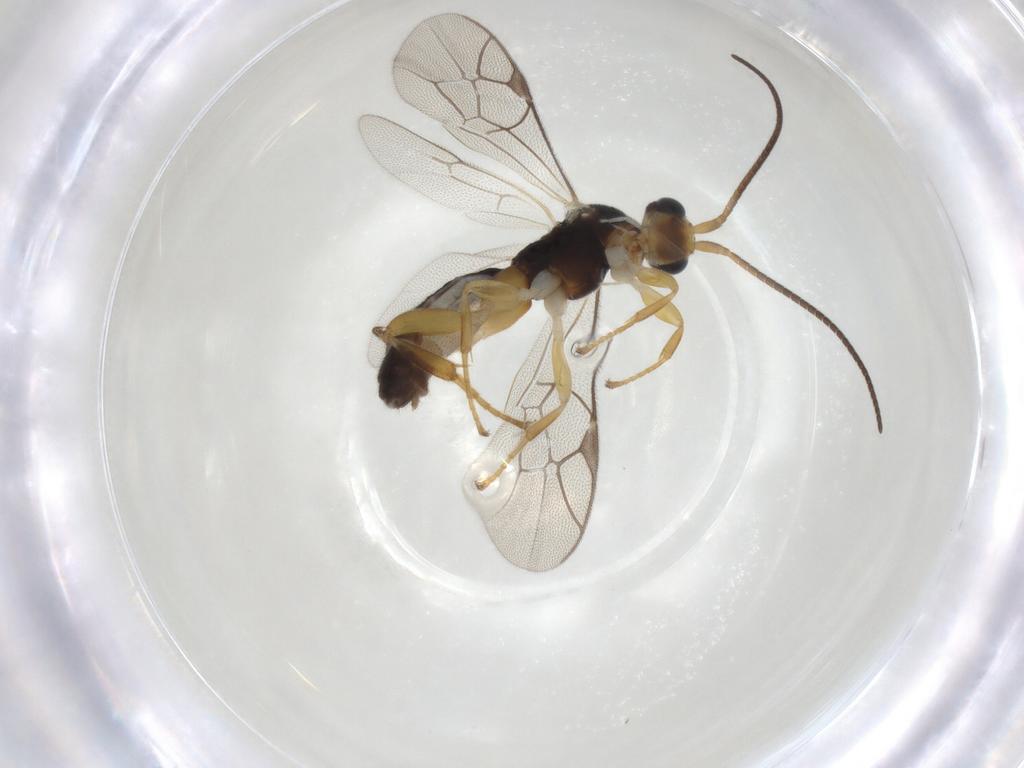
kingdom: Animalia
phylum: Arthropoda
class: Insecta
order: Hymenoptera
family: Ichneumonidae
